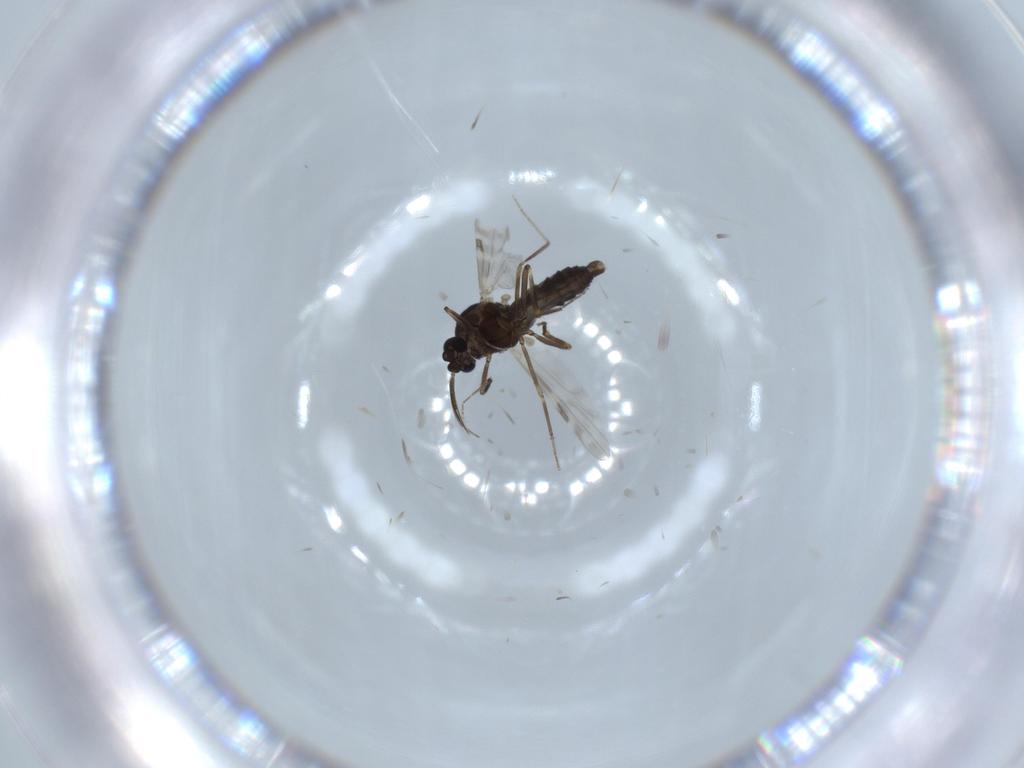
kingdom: Animalia
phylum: Arthropoda
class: Insecta
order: Diptera
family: Ceratopogonidae
